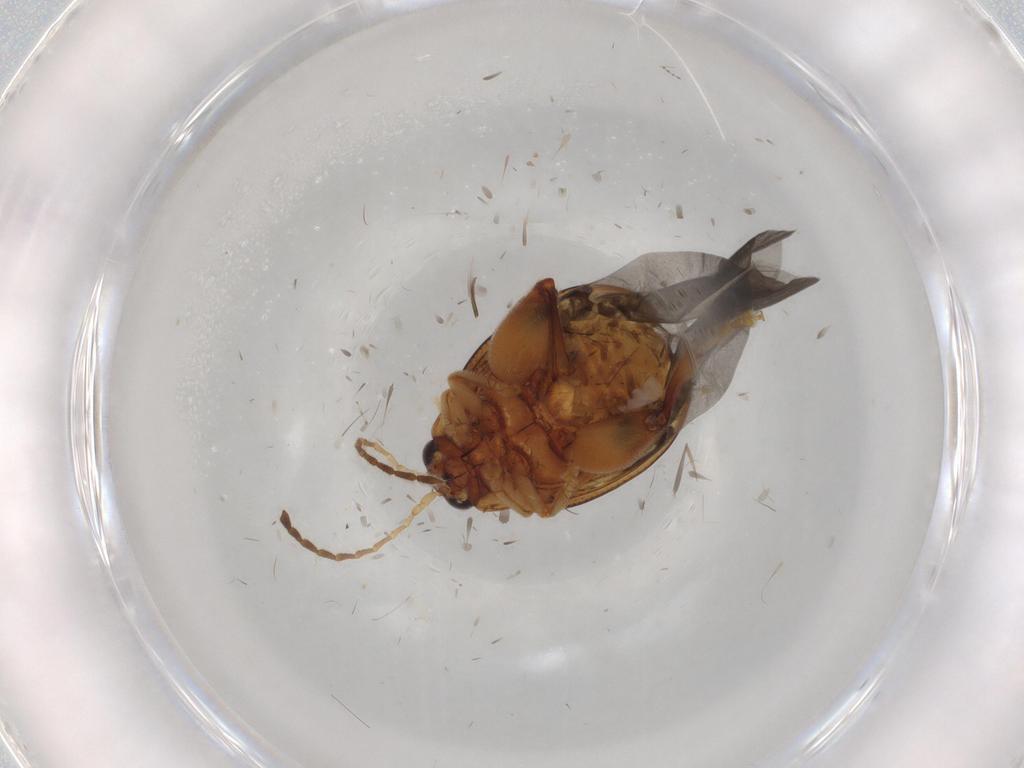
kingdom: Animalia
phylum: Arthropoda
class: Insecta
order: Coleoptera
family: Chrysomelidae
